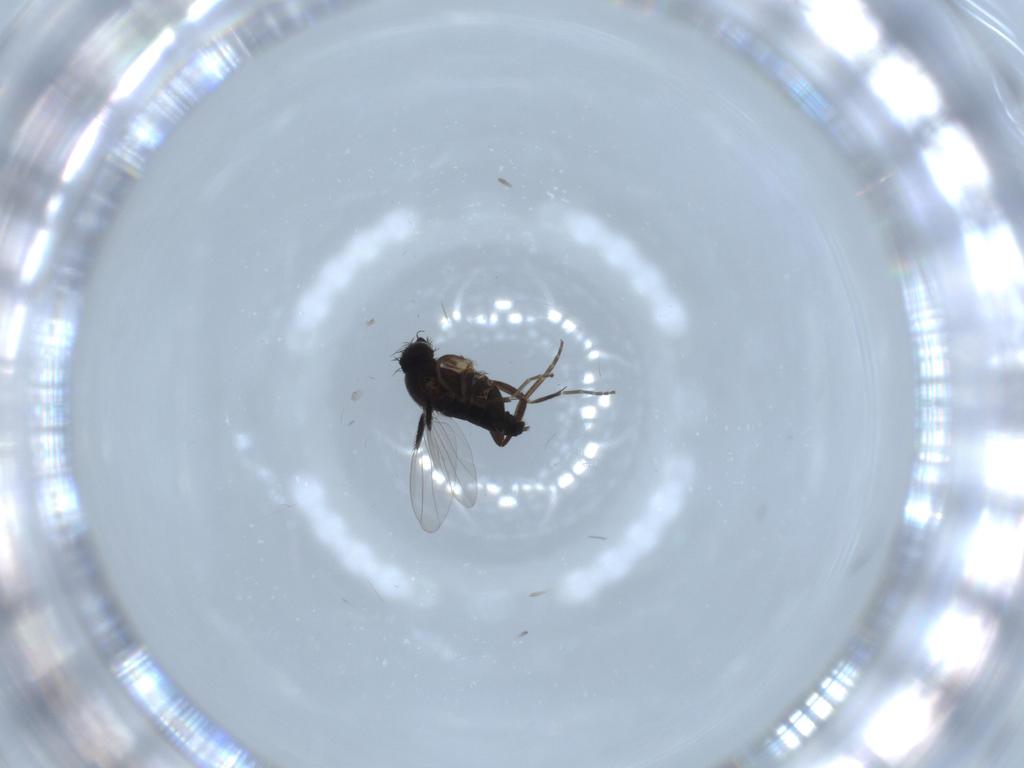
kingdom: Animalia
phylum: Arthropoda
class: Insecta
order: Diptera
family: Phoridae
